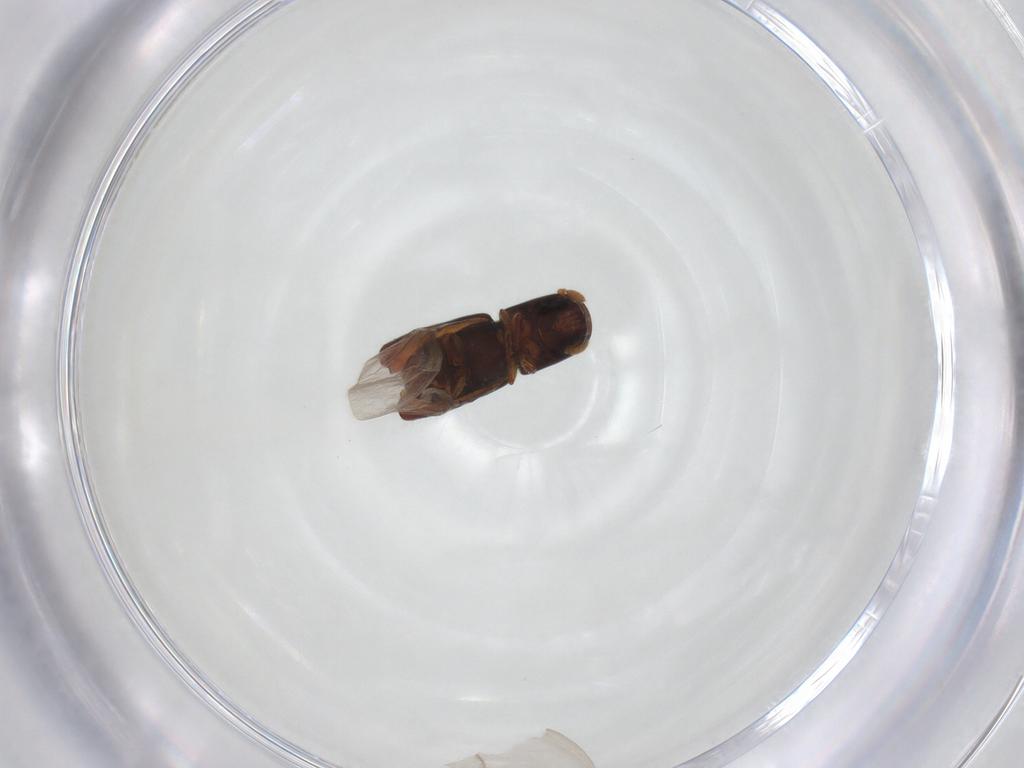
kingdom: Animalia
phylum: Arthropoda
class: Insecta
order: Coleoptera
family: Curculionidae
